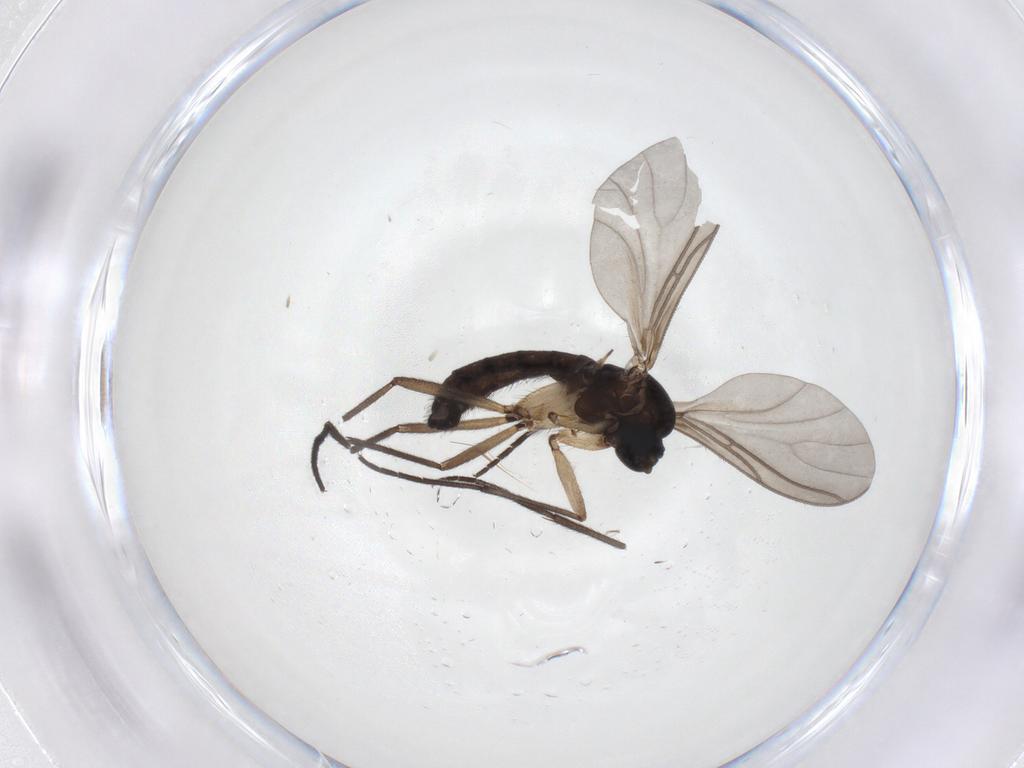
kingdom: Animalia
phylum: Arthropoda
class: Insecta
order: Diptera
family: Sciaridae
